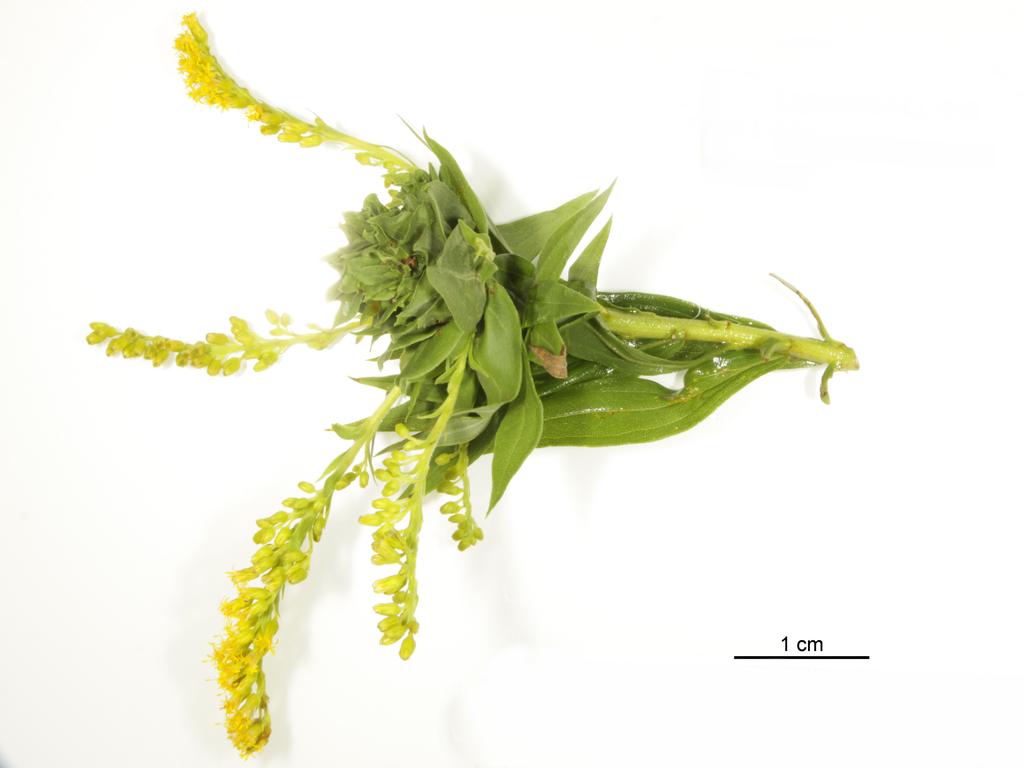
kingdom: Animalia
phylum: Arthropoda
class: Insecta
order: Hymenoptera
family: Torymidae
